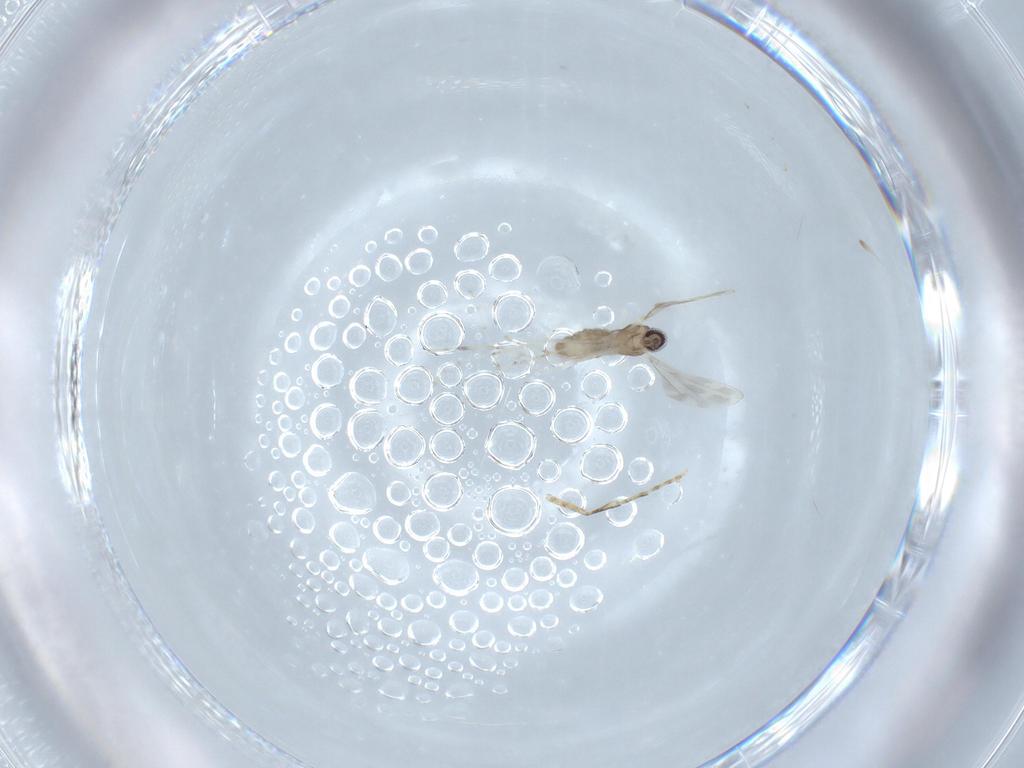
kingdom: Animalia
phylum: Arthropoda
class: Insecta
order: Diptera
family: Cecidomyiidae
